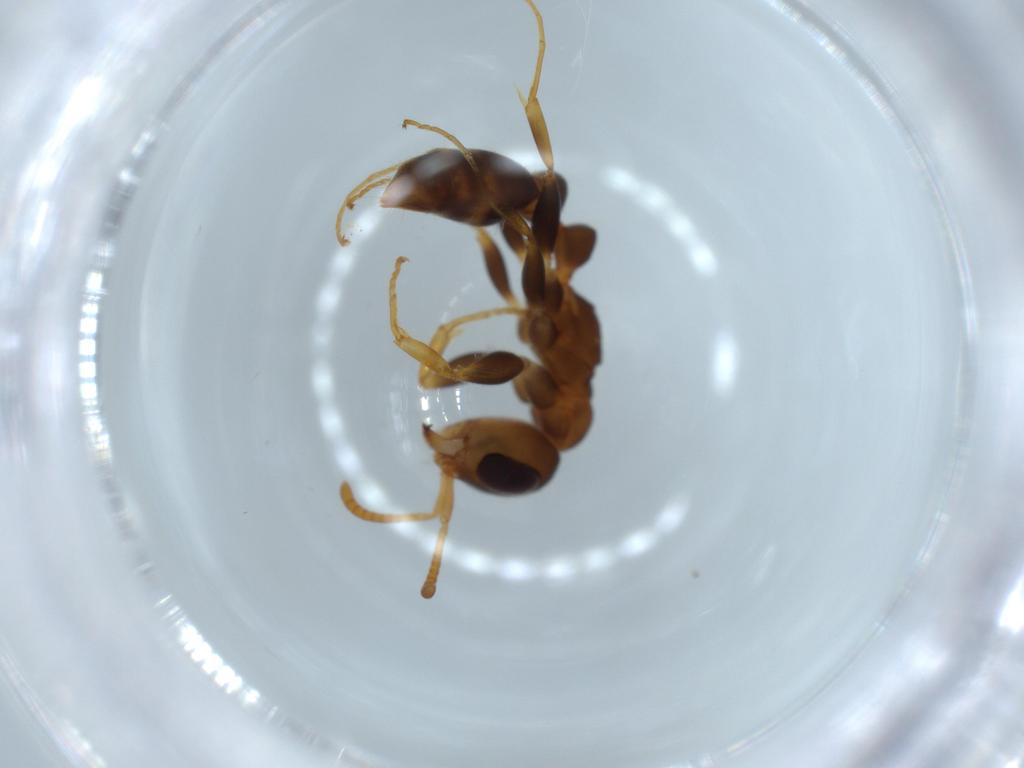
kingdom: Animalia
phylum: Arthropoda
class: Insecta
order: Hymenoptera
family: Formicidae
